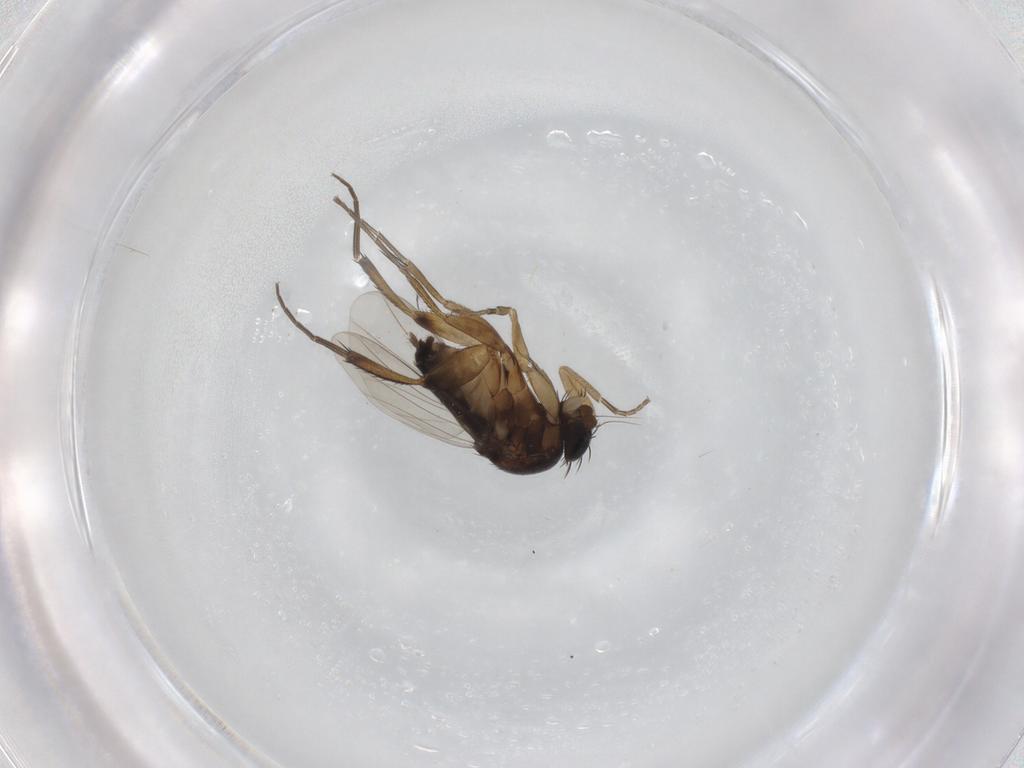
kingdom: Animalia
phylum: Arthropoda
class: Insecta
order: Diptera
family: Phoridae
